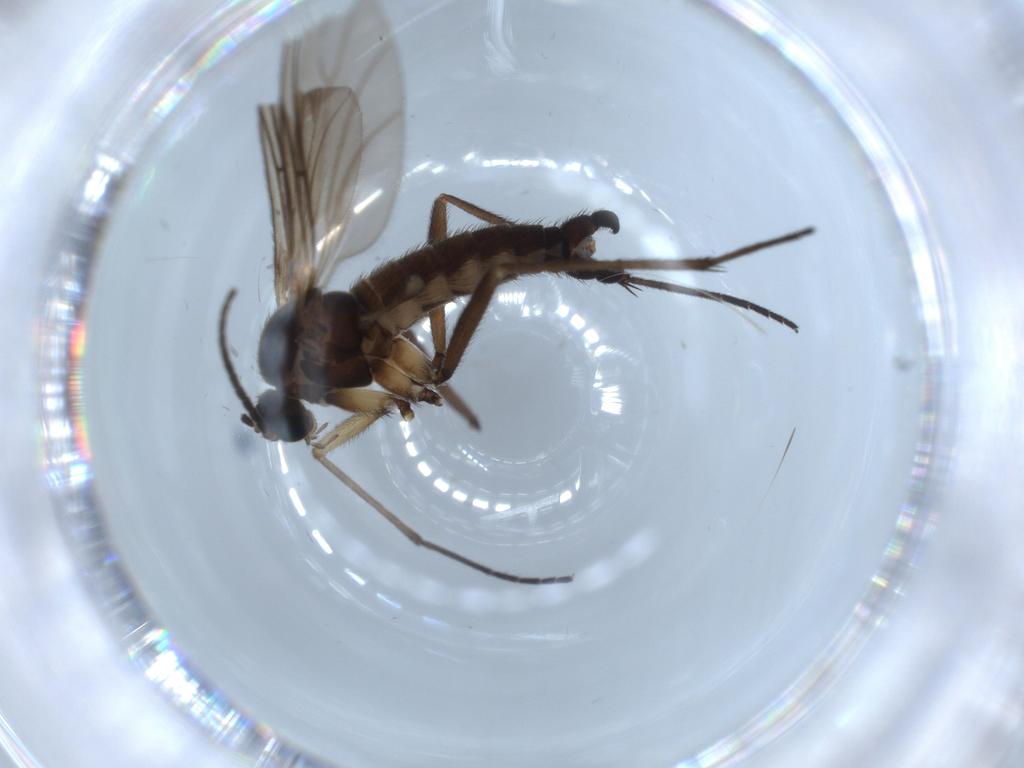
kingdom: Animalia
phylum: Arthropoda
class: Insecta
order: Diptera
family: Sciaridae
